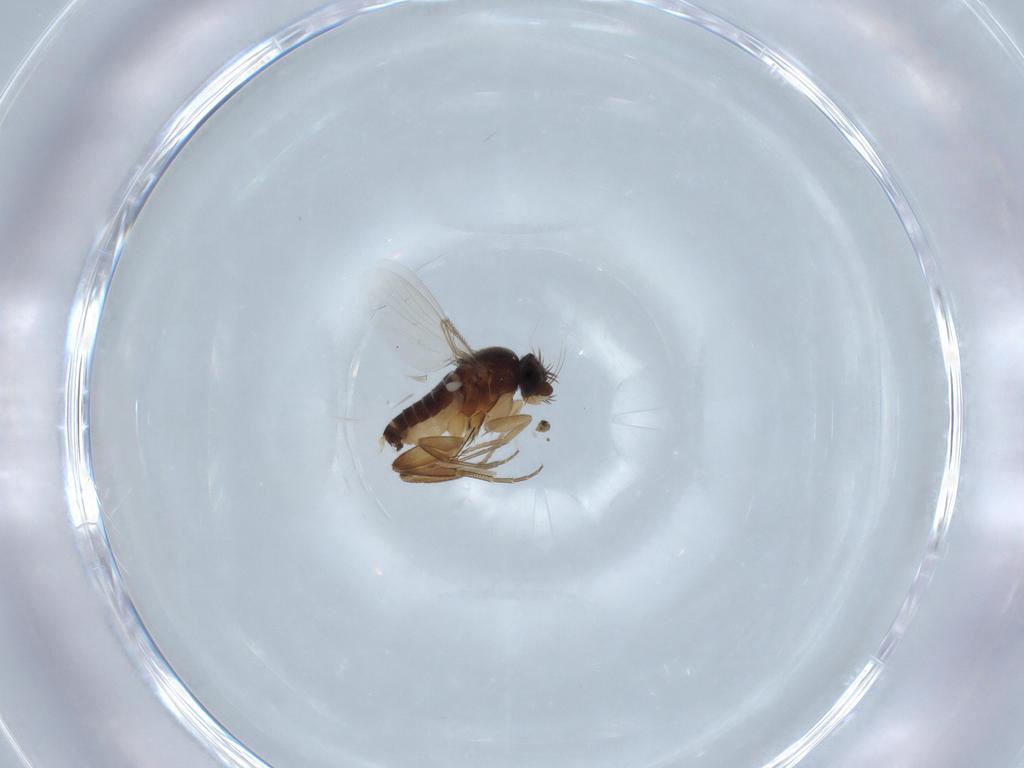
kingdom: Animalia
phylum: Arthropoda
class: Insecta
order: Diptera
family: Phoridae
